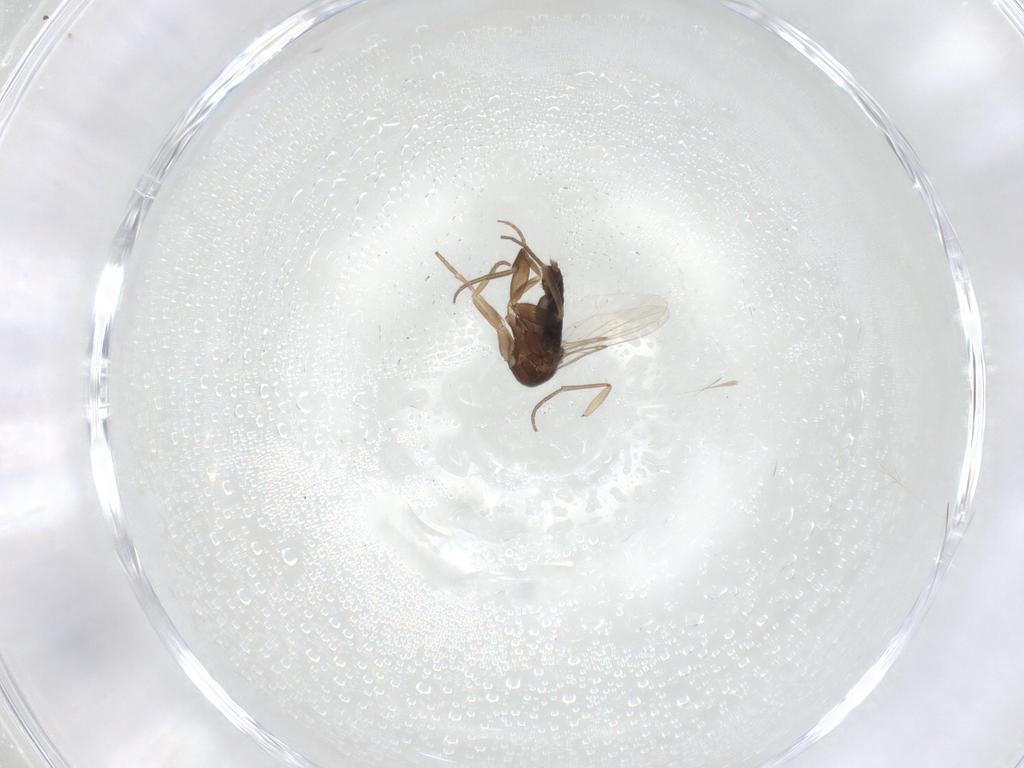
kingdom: Animalia
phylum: Arthropoda
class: Insecta
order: Diptera
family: Phoridae
